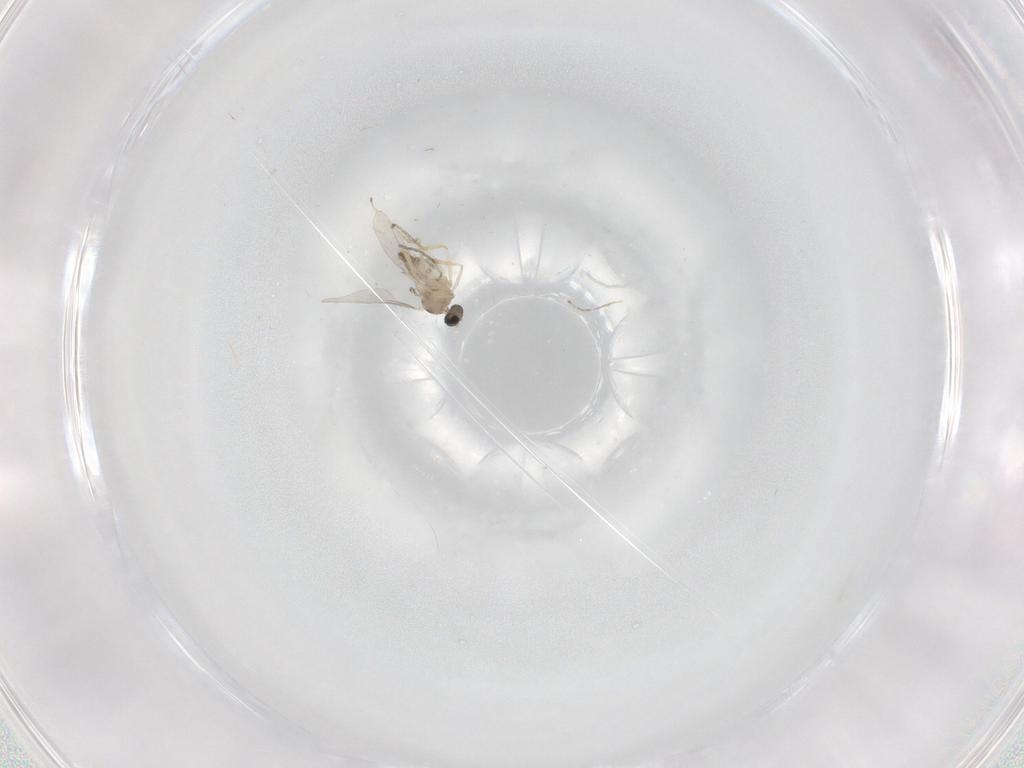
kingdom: Animalia
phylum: Arthropoda
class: Insecta
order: Diptera
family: Cecidomyiidae
